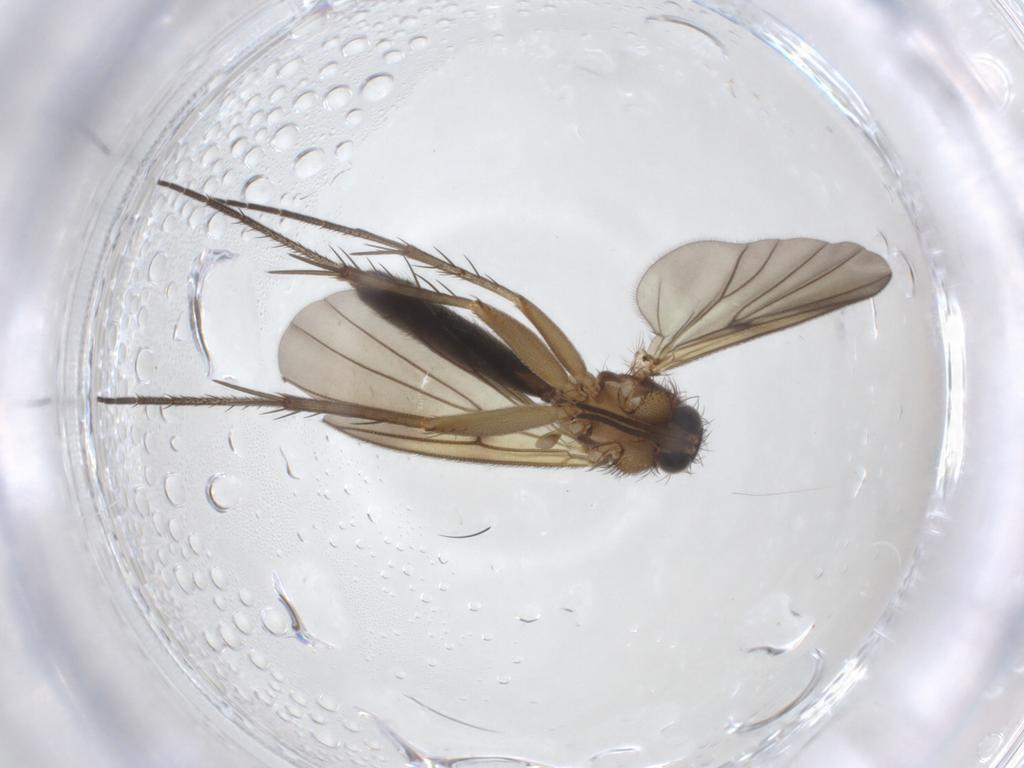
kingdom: Animalia
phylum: Arthropoda
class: Insecta
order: Diptera
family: Mycetophilidae
